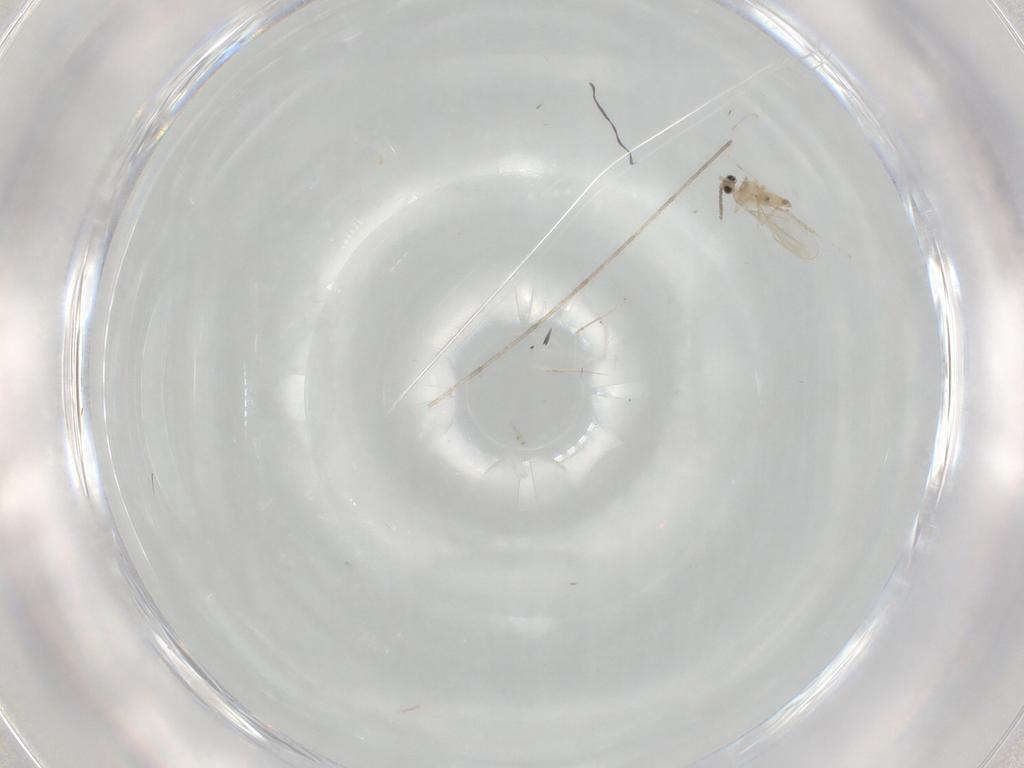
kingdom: Animalia
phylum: Arthropoda
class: Insecta
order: Diptera
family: Cecidomyiidae
